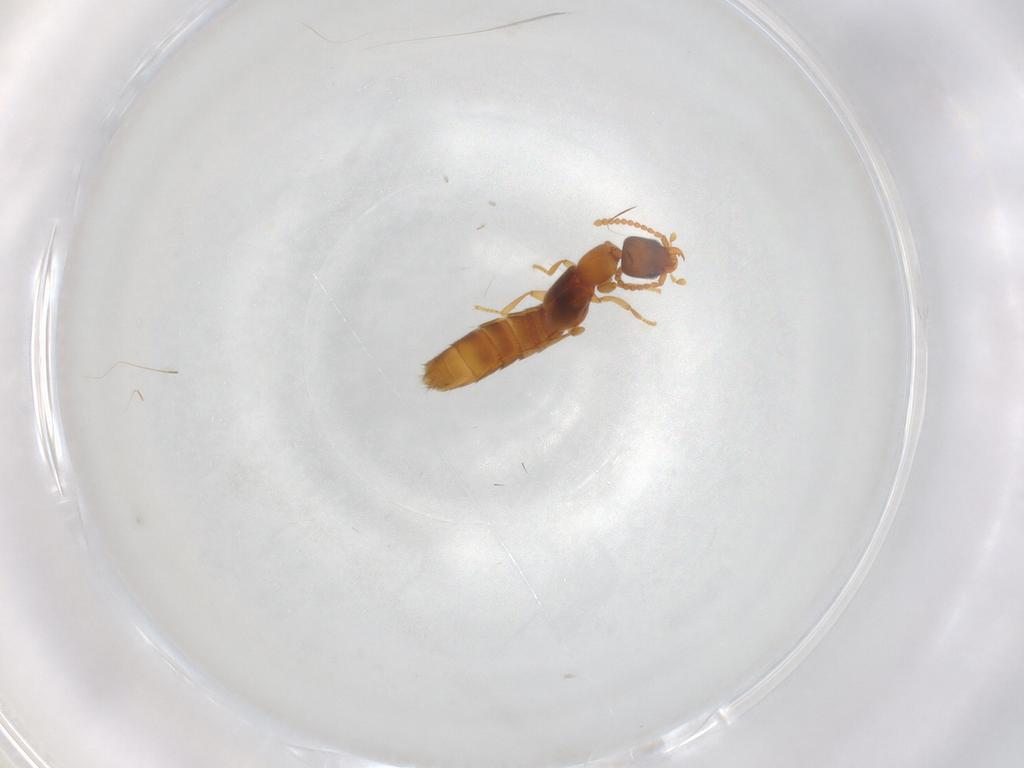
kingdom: Animalia
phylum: Arthropoda
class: Insecta
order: Coleoptera
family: Staphylinidae
